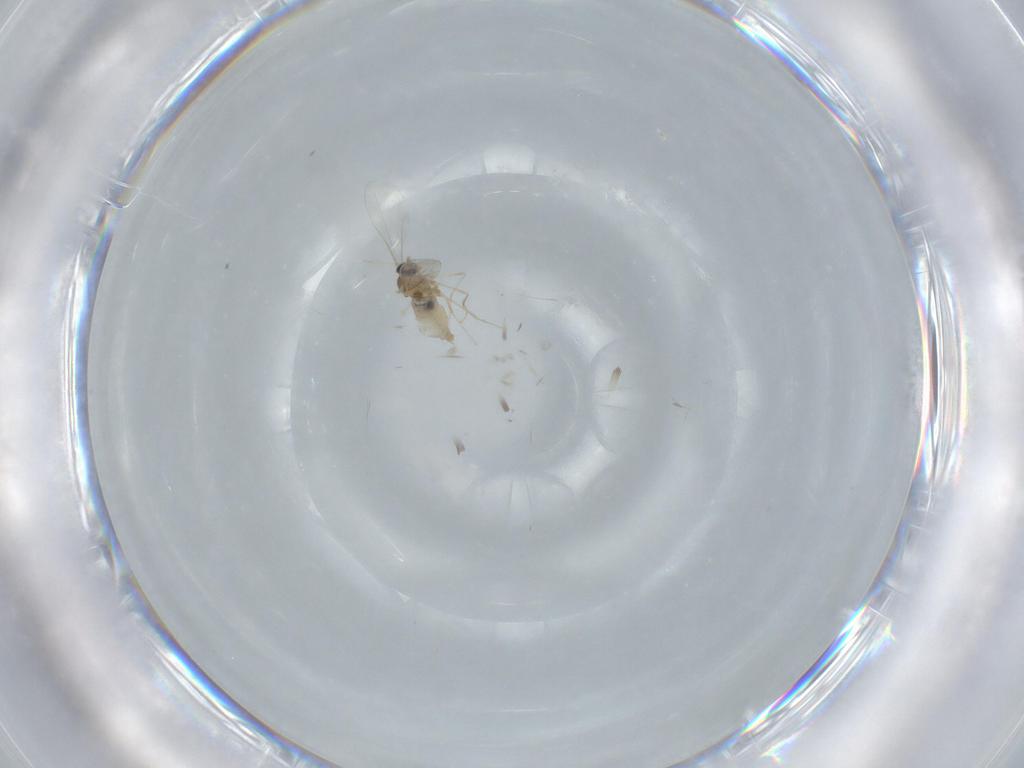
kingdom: Animalia
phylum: Arthropoda
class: Insecta
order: Diptera
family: Cecidomyiidae
